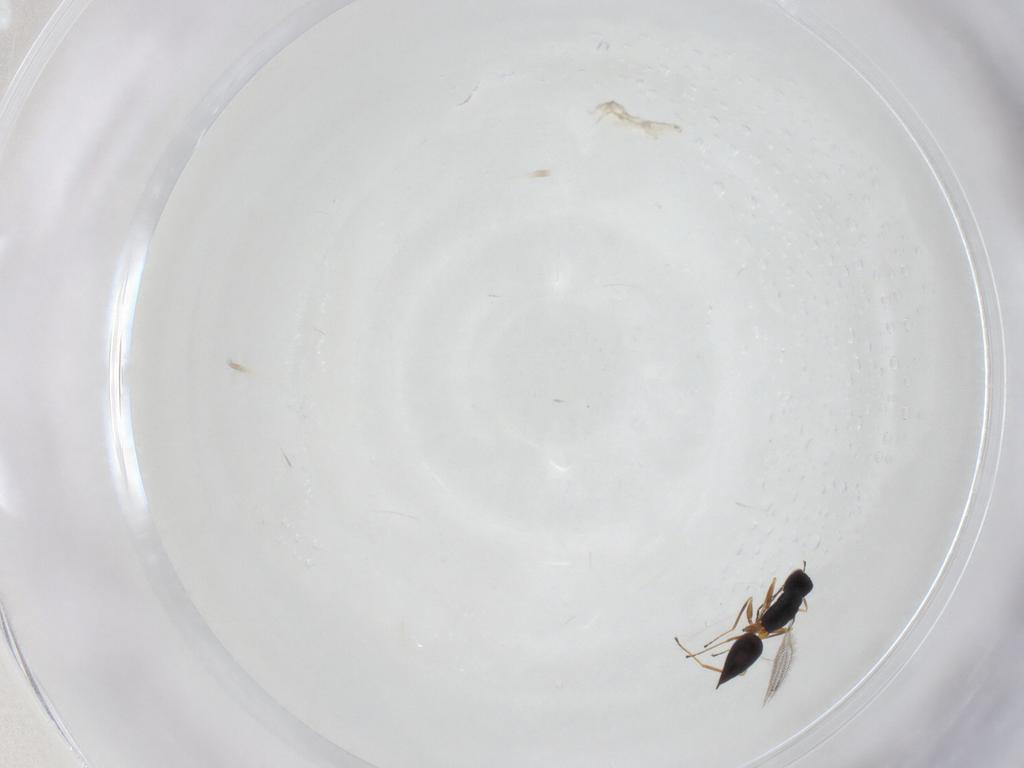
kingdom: Animalia
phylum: Arthropoda
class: Insecta
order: Hymenoptera
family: Mymaridae
